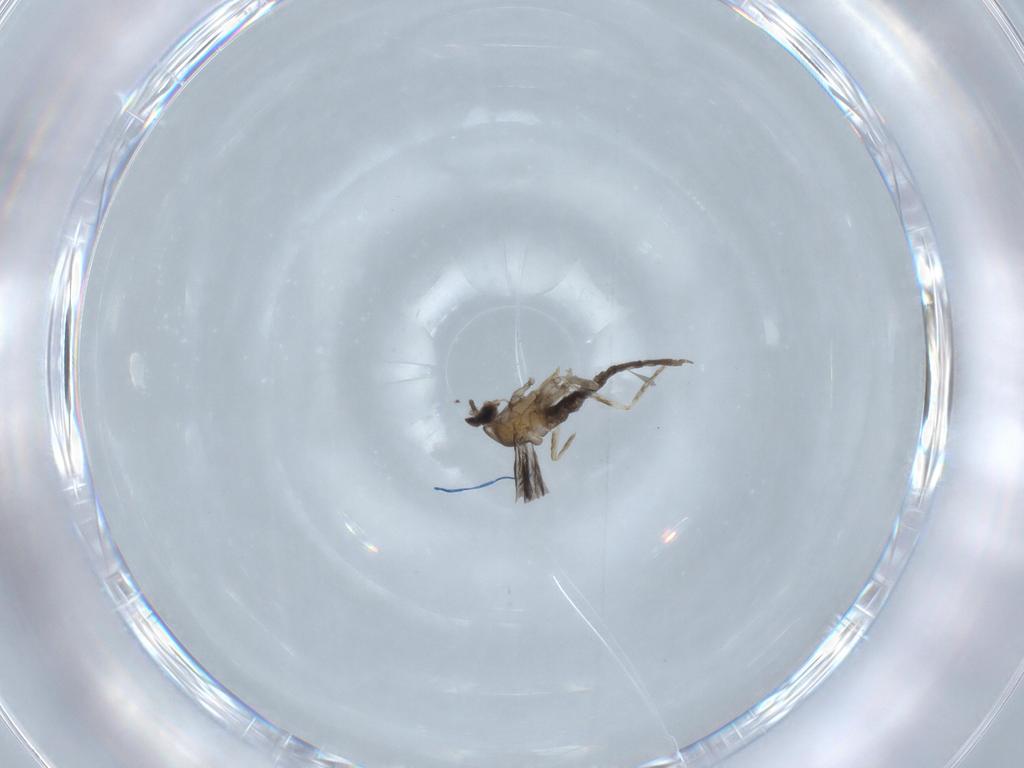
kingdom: Animalia
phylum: Arthropoda
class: Insecta
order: Diptera
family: Cecidomyiidae
